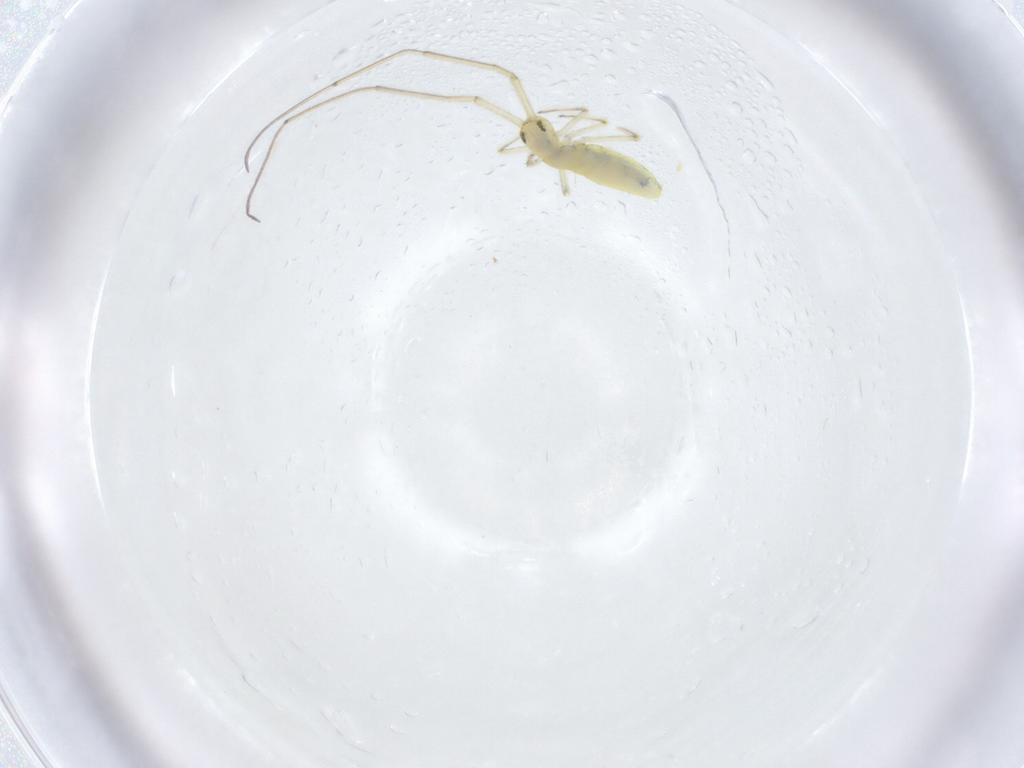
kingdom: Animalia
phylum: Arthropoda
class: Insecta
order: Diptera
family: Cecidomyiidae
